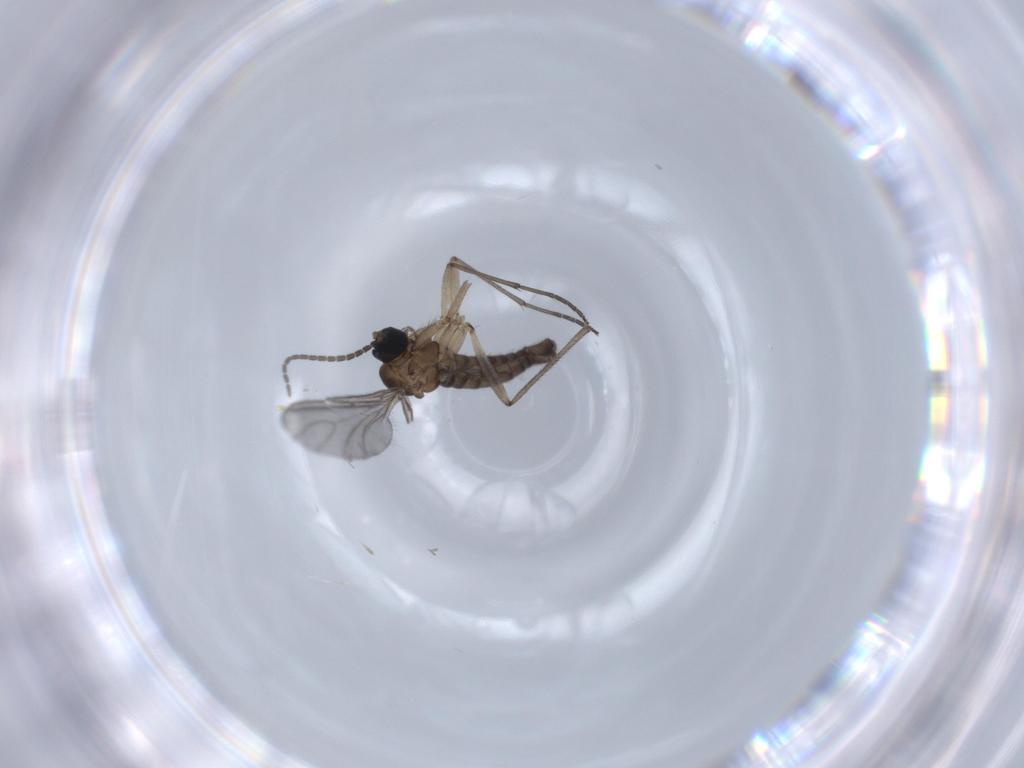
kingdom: Animalia
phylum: Arthropoda
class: Insecta
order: Diptera
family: Sciaridae
